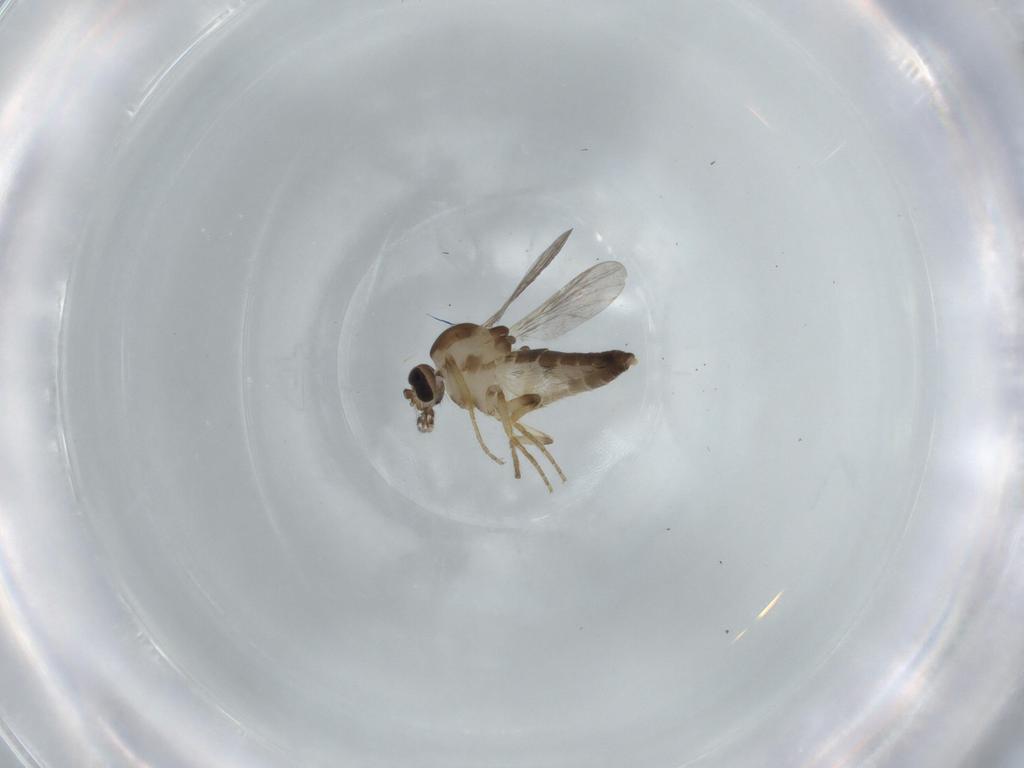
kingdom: Animalia
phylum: Arthropoda
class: Insecta
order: Diptera
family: Ceratopogonidae
